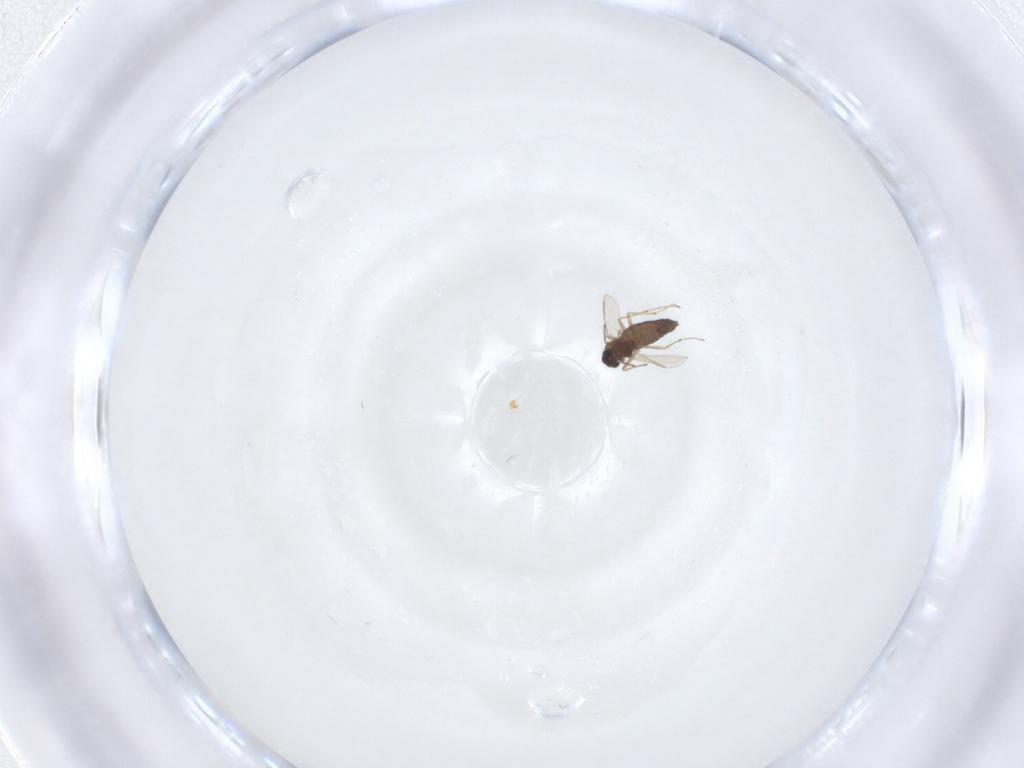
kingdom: Animalia
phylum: Arthropoda
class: Insecta
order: Diptera
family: Chironomidae
